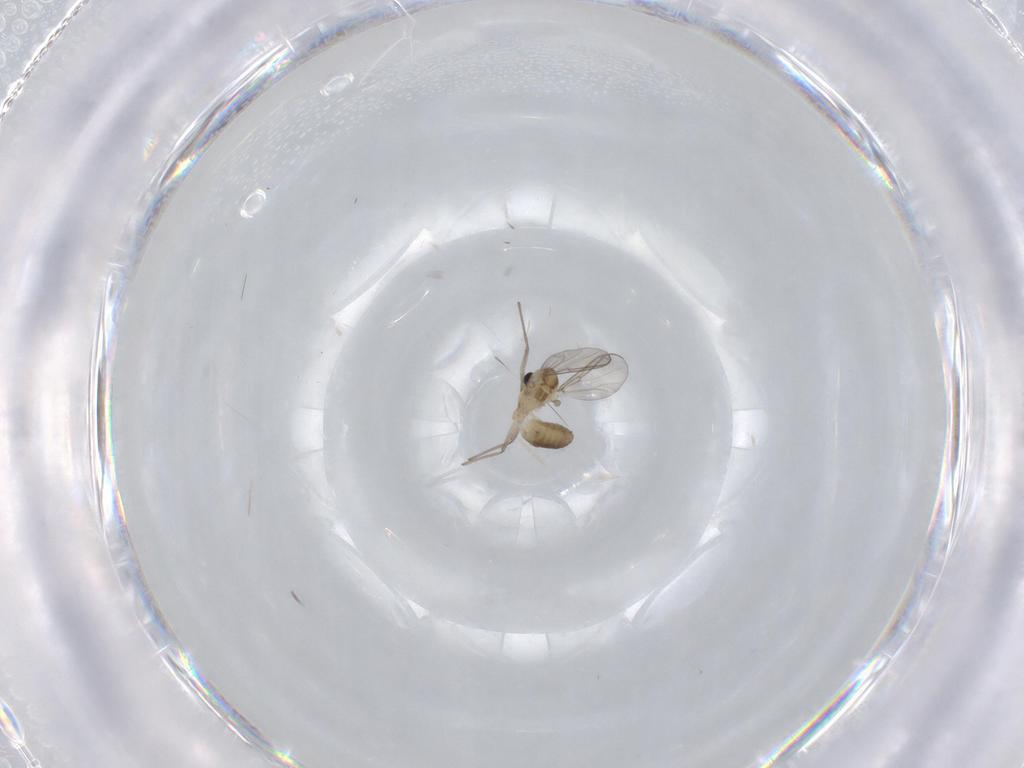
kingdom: Animalia
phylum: Arthropoda
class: Insecta
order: Diptera
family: Chironomidae
